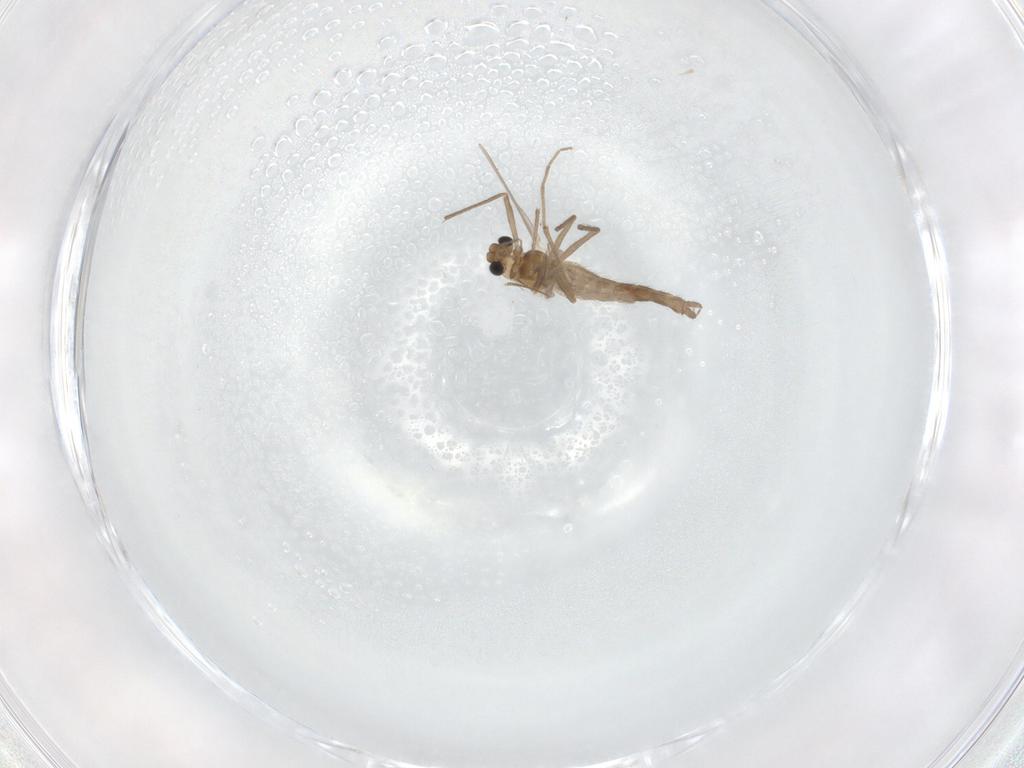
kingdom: Animalia
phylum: Arthropoda
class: Insecta
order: Diptera
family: Chironomidae
